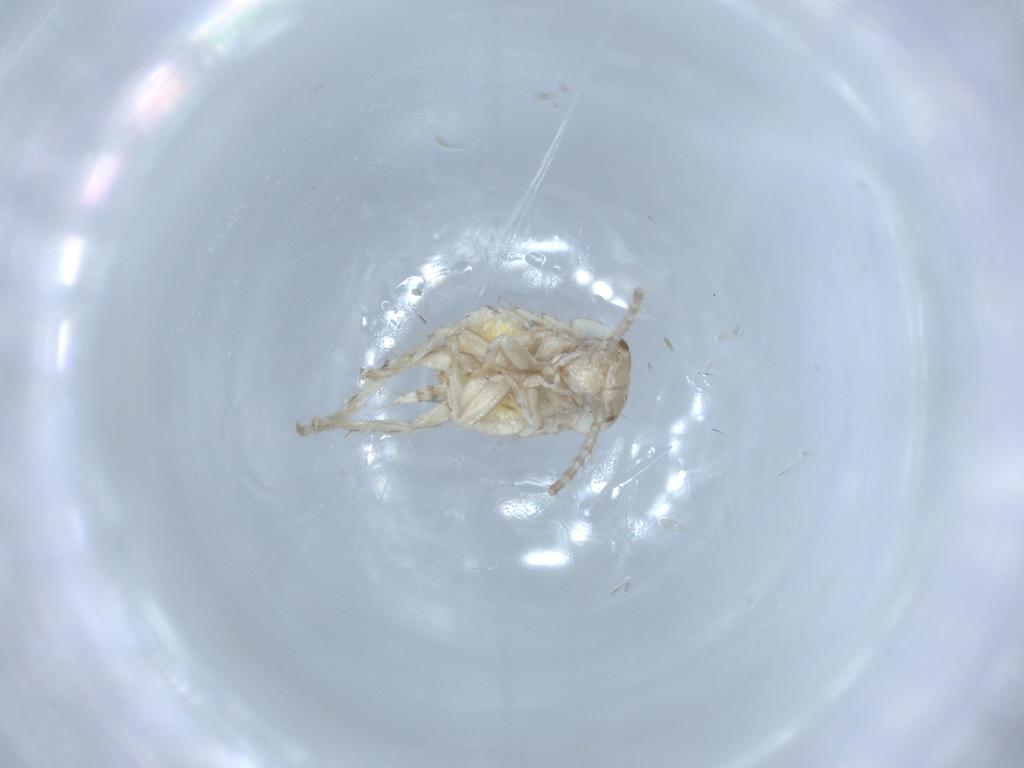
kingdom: Animalia
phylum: Arthropoda
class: Insecta
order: Blattodea
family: Ectobiidae
